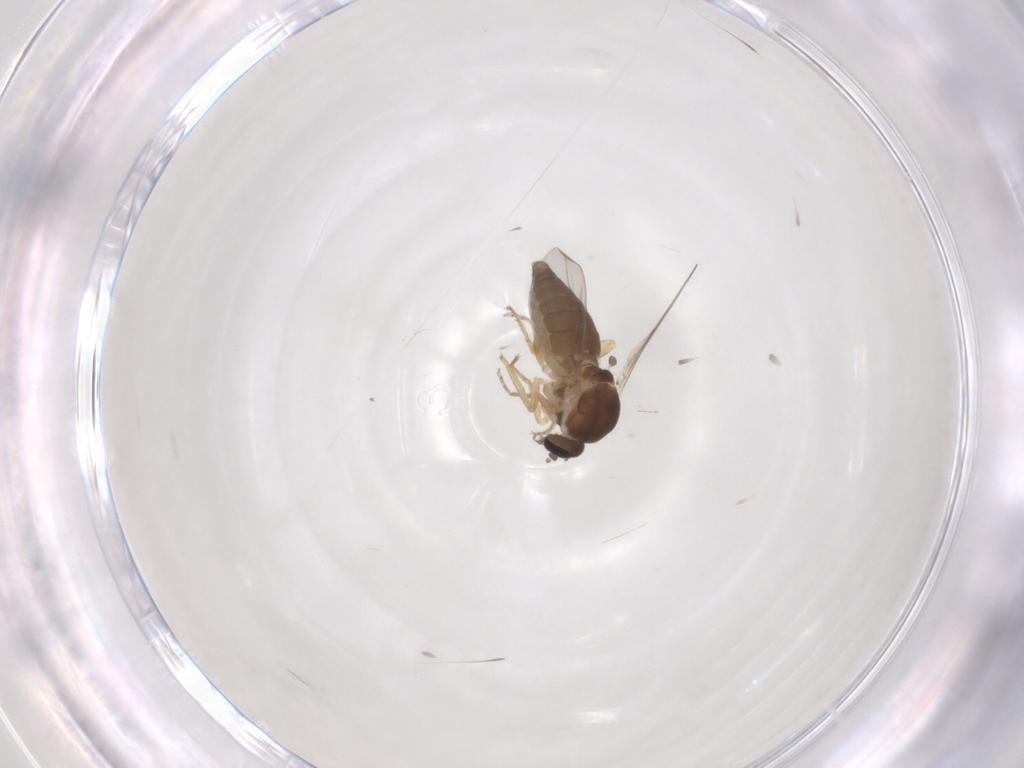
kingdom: Animalia
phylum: Arthropoda
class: Insecta
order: Diptera
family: Ceratopogonidae
